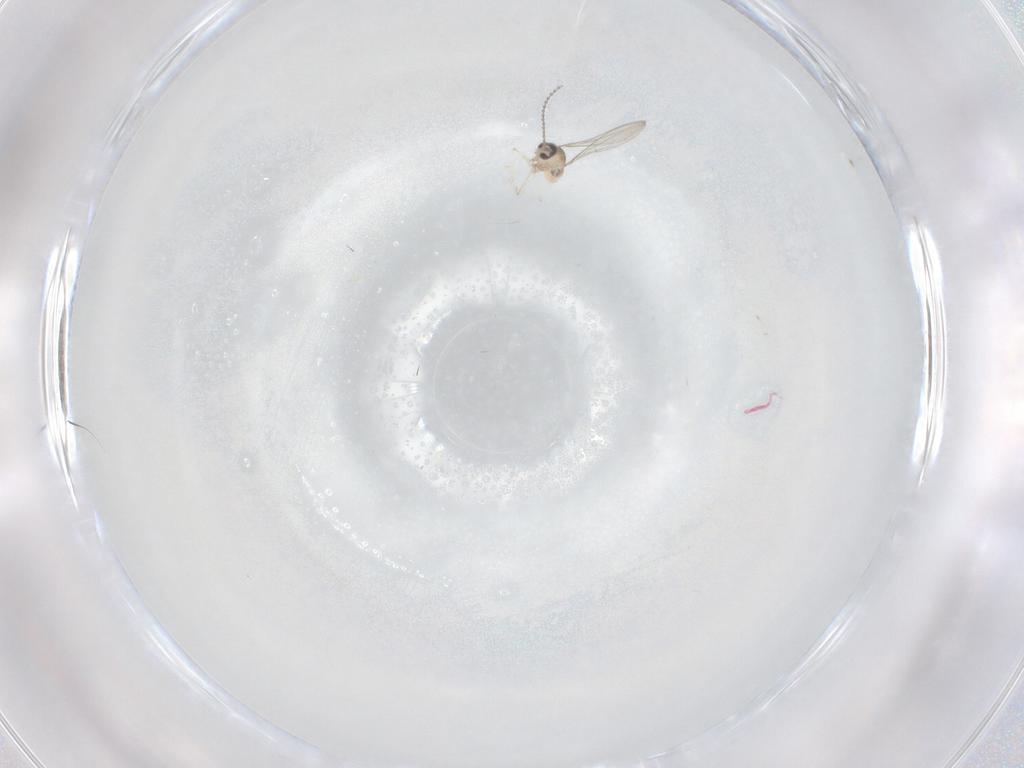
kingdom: Animalia
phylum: Arthropoda
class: Insecta
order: Diptera
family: Cecidomyiidae
